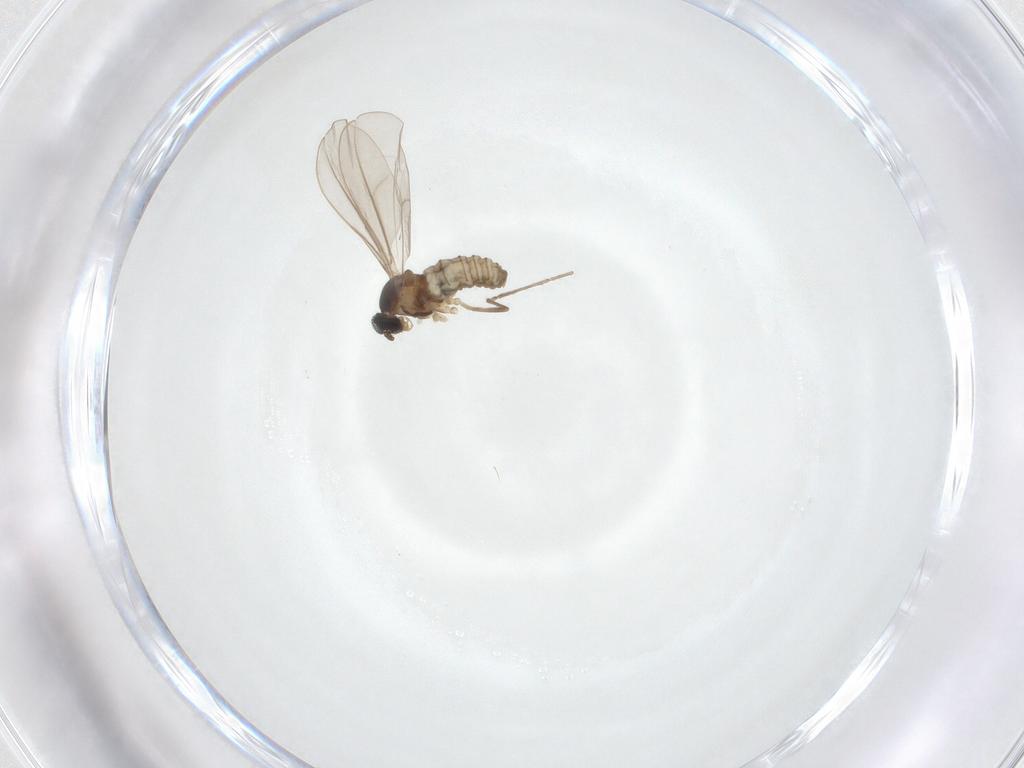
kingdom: Animalia
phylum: Arthropoda
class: Insecta
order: Diptera
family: Cecidomyiidae
